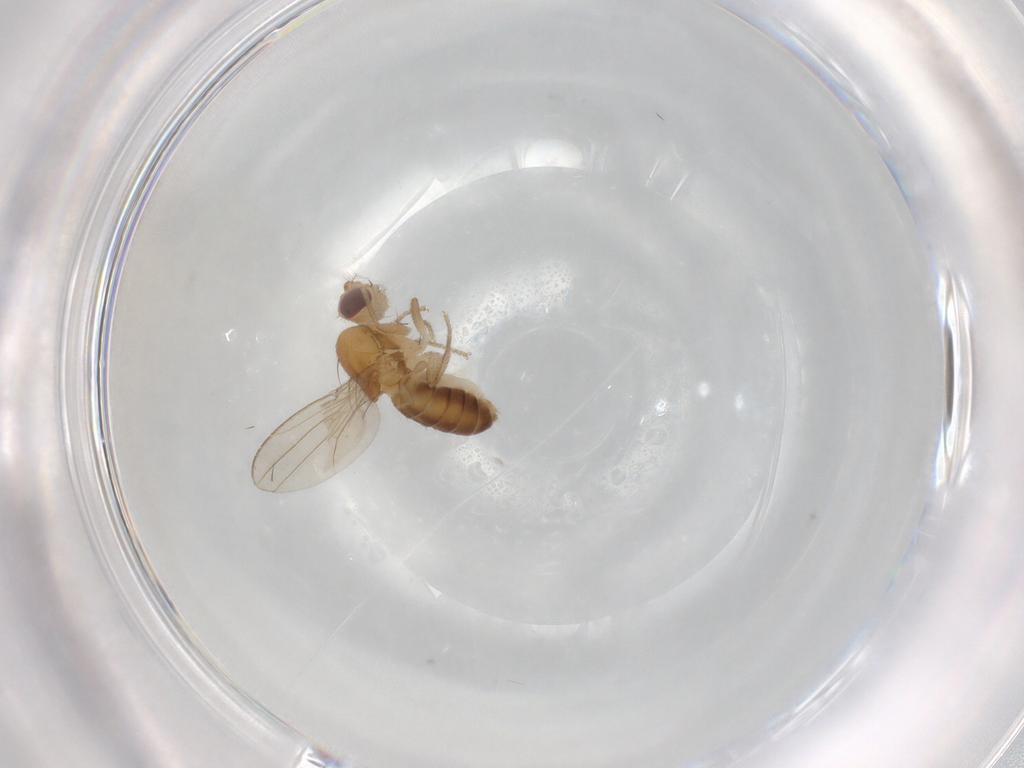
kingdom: Animalia
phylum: Arthropoda
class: Insecta
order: Diptera
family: Drosophilidae
